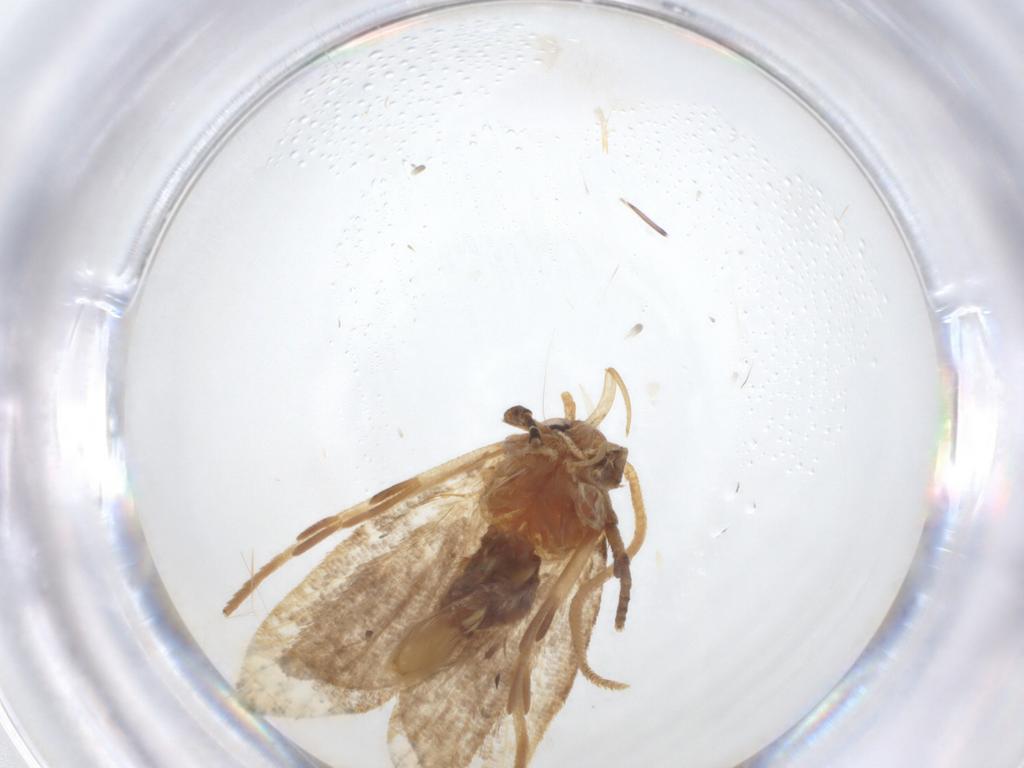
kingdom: Animalia
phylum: Arthropoda
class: Insecta
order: Lepidoptera
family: Oecophoridae
